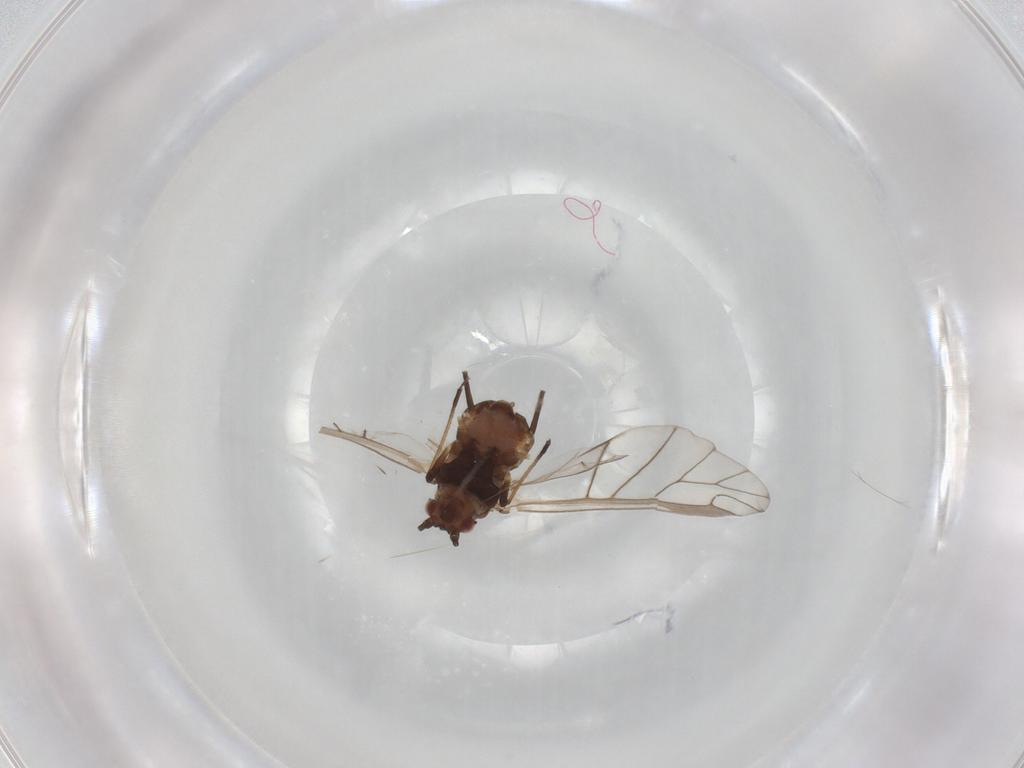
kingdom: Animalia
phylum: Arthropoda
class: Insecta
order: Hemiptera
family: Aphididae
